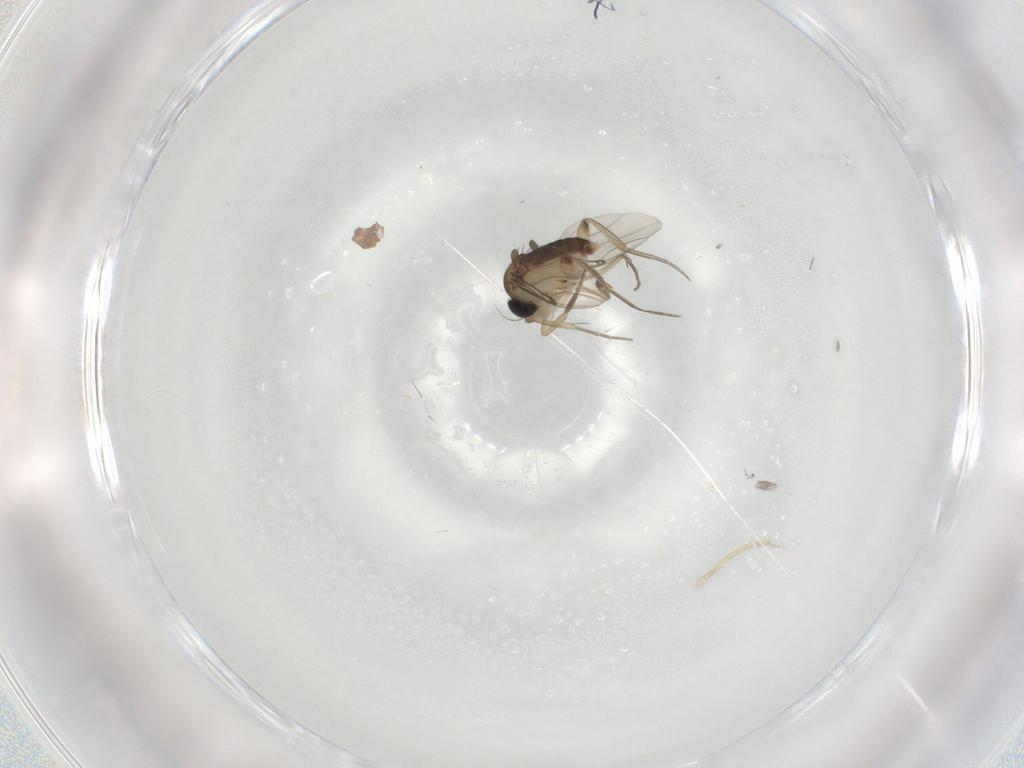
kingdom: Animalia
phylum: Arthropoda
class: Insecta
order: Diptera
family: Phoridae
